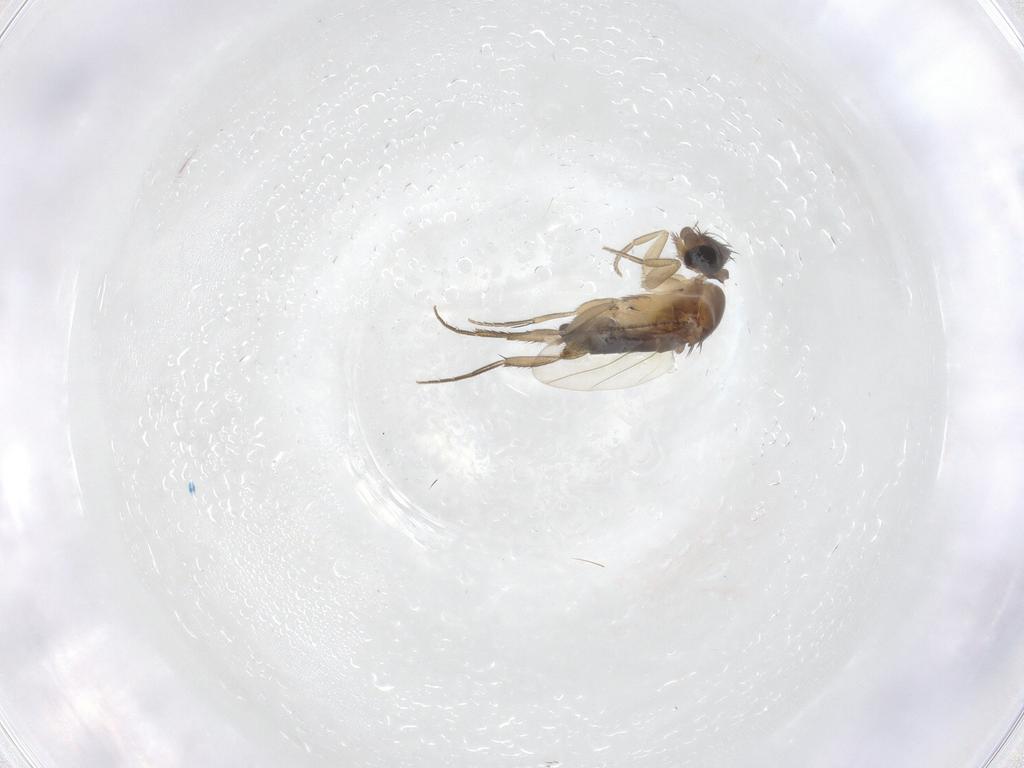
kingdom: Animalia
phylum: Arthropoda
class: Insecta
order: Diptera
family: Phoridae
